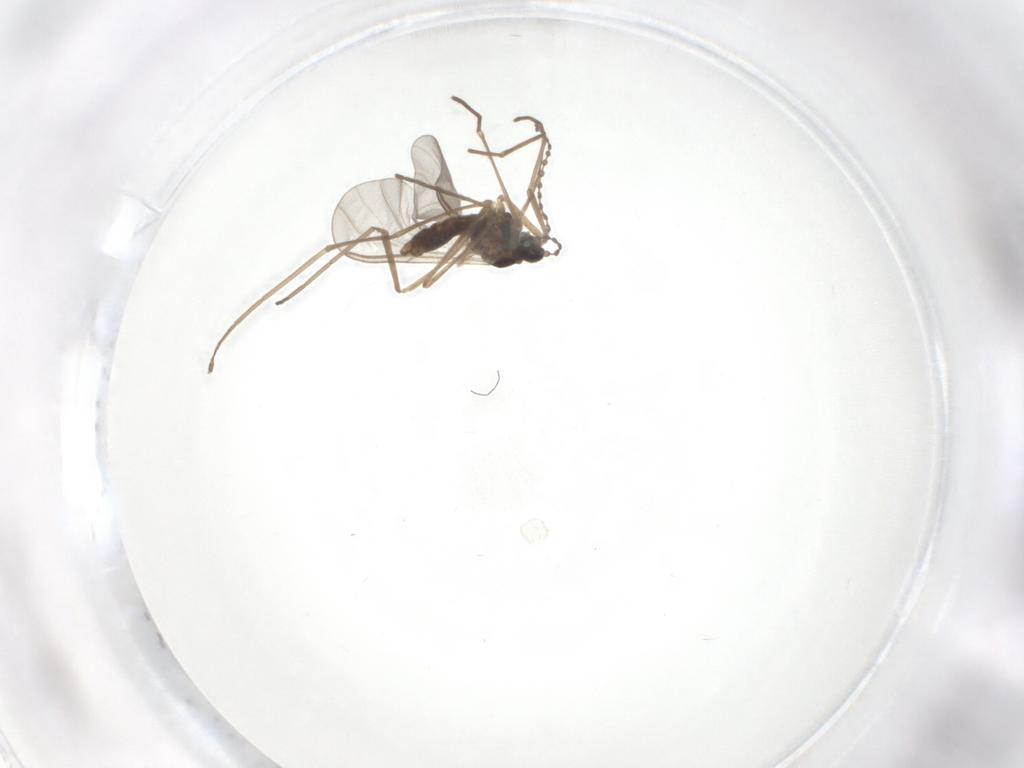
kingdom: Animalia
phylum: Arthropoda
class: Insecta
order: Diptera
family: Cecidomyiidae
